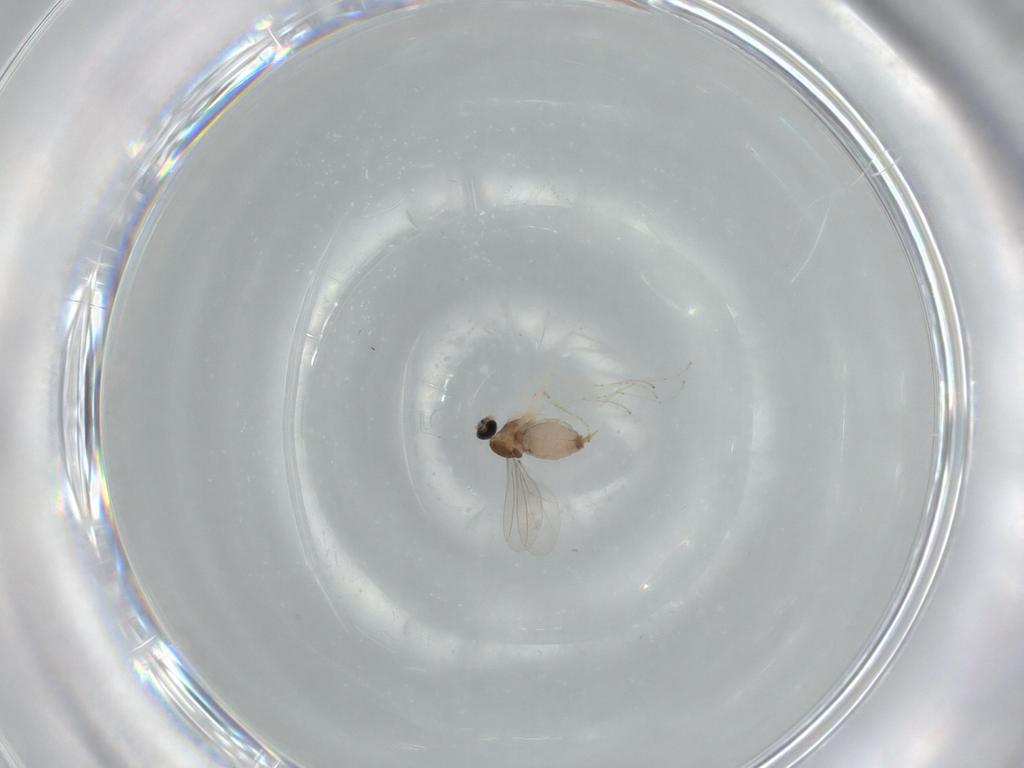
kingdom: Animalia
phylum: Arthropoda
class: Insecta
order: Diptera
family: Cecidomyiidae
